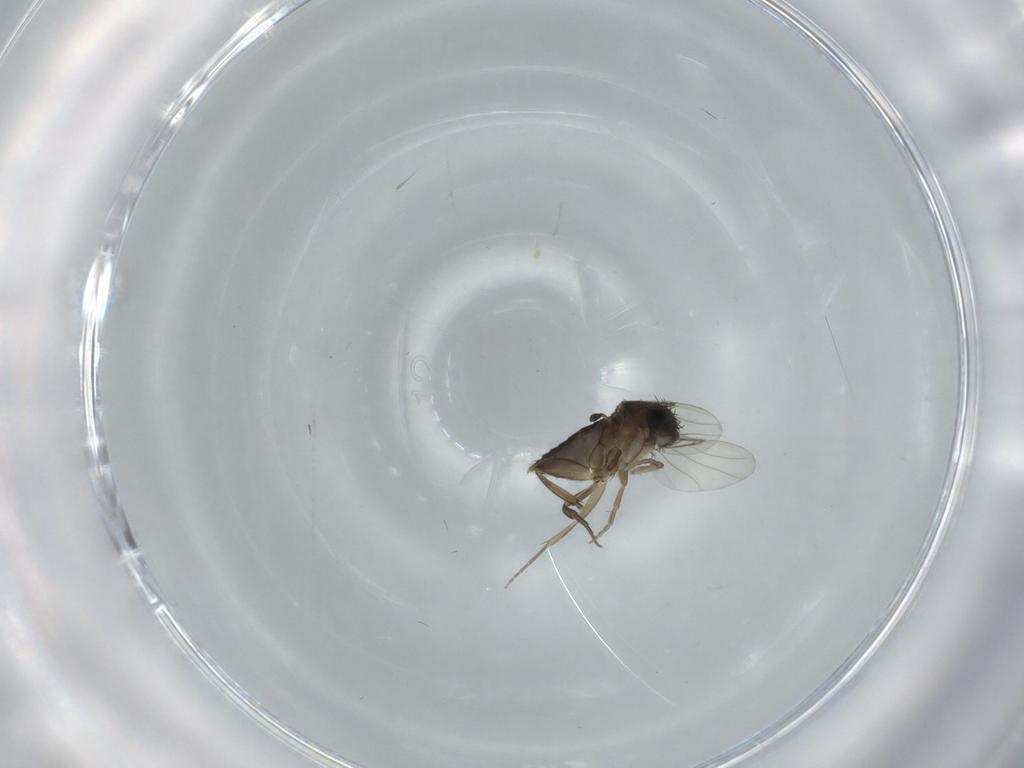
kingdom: Animalia
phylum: Arthropoda
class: Insecta
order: Diptera
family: Phoridae
